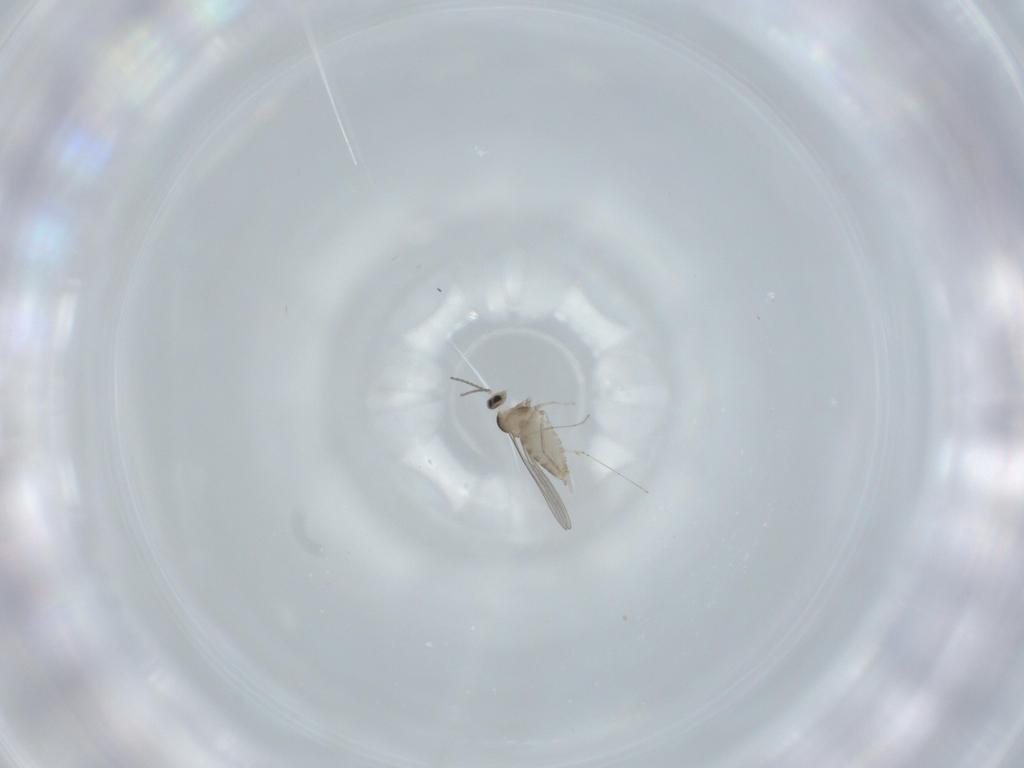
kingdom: Animalia
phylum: Arthropoda
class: Insecta
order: Diptera
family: Cecidomyiidae
